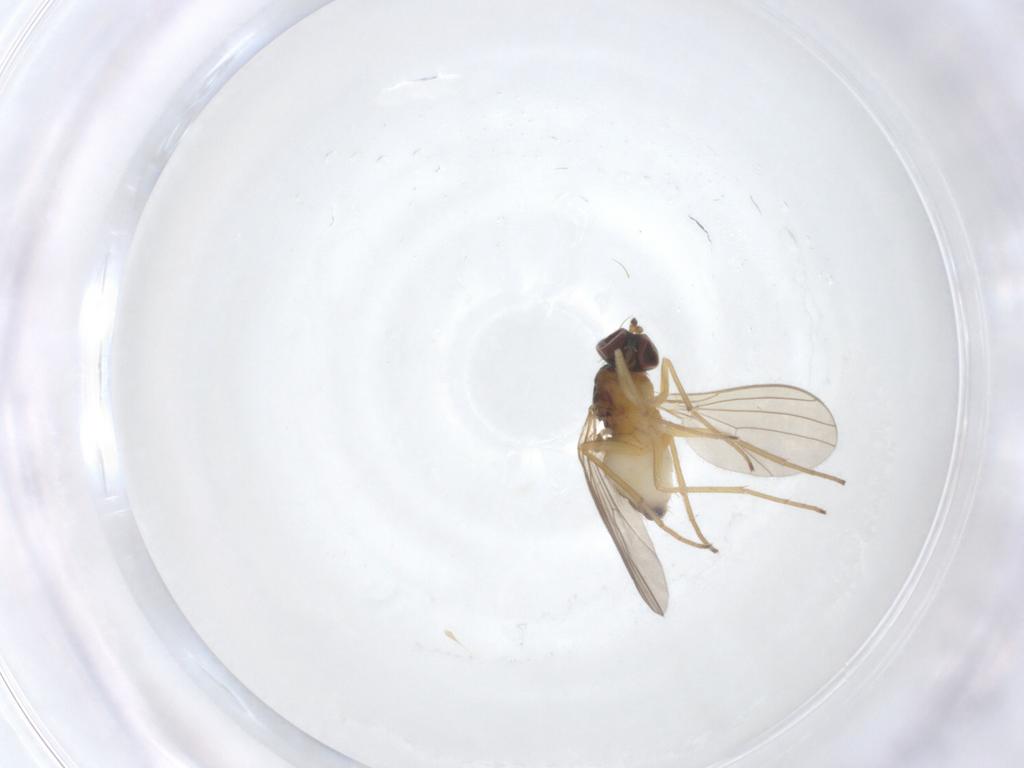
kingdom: Animalia
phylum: Arthropoda
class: Insecta
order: Diptera
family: Dolichopodidae
